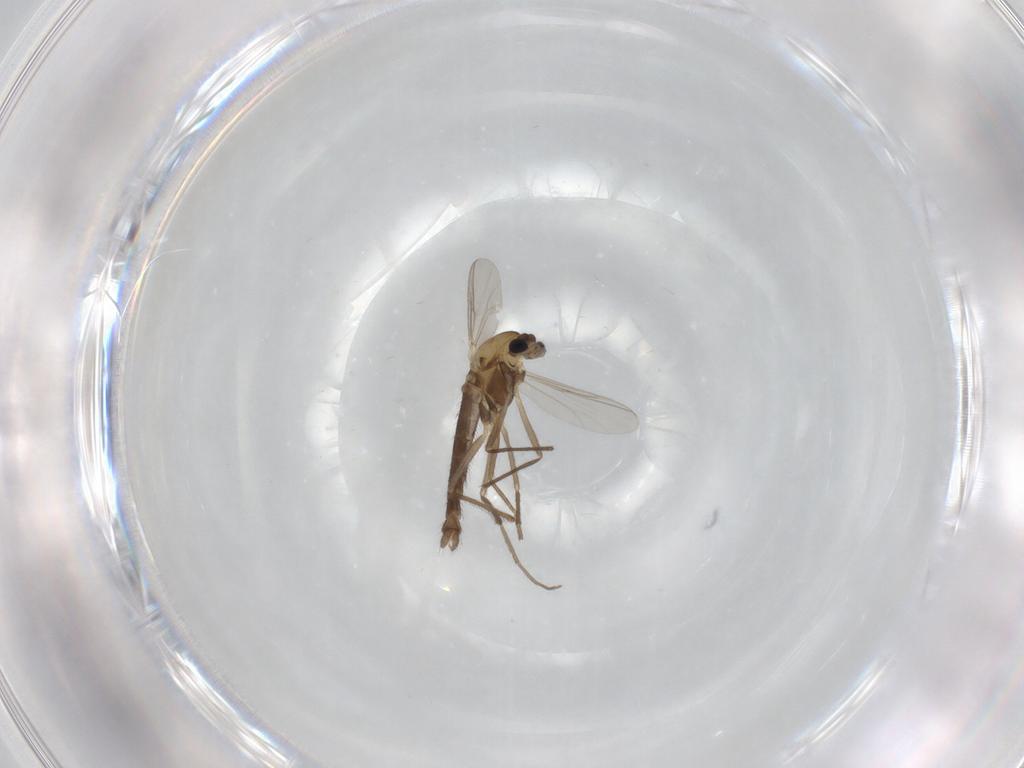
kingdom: Animalia
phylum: Arthropoda
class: Insecta
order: Diptera
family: Chironomidae
